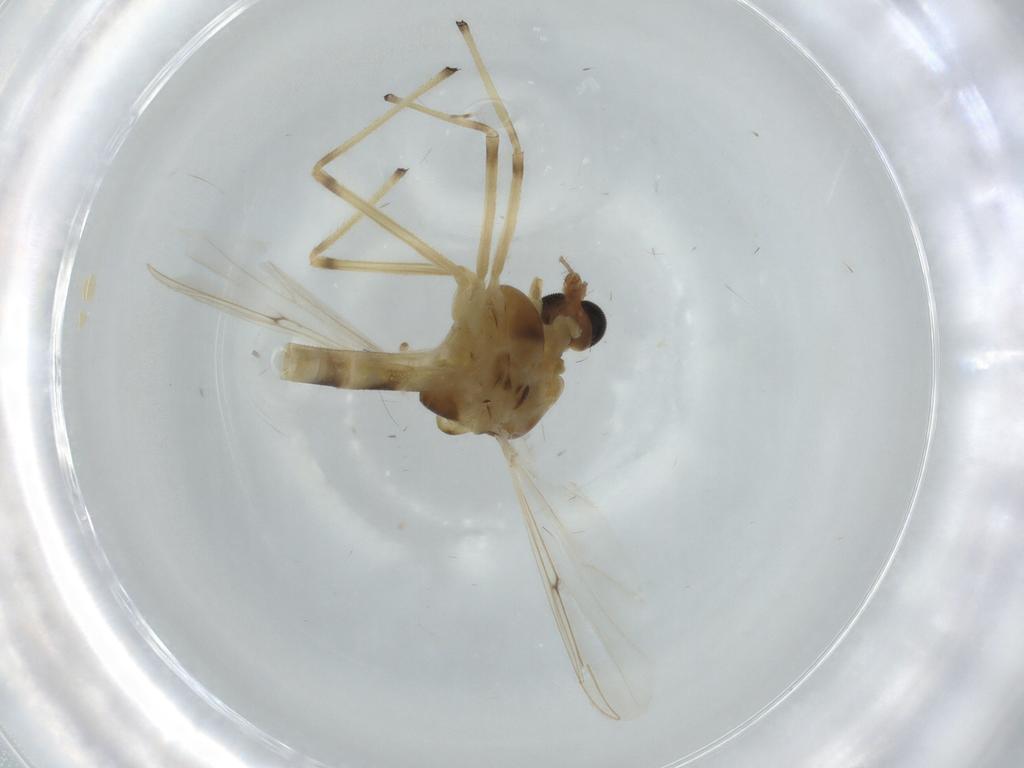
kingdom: Animalia
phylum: Arthropoda
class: Insecta
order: Diptera
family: Chironomidae
